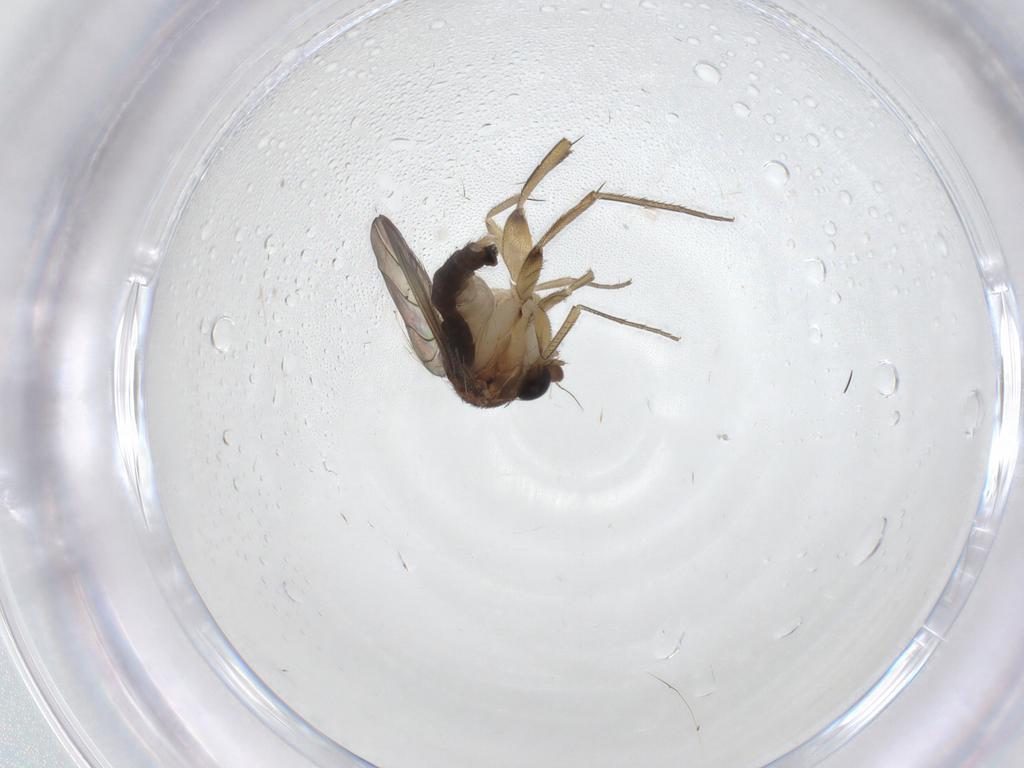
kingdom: Animalia
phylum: Arthropoda
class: Insecta
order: Diptera
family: Phoridae
